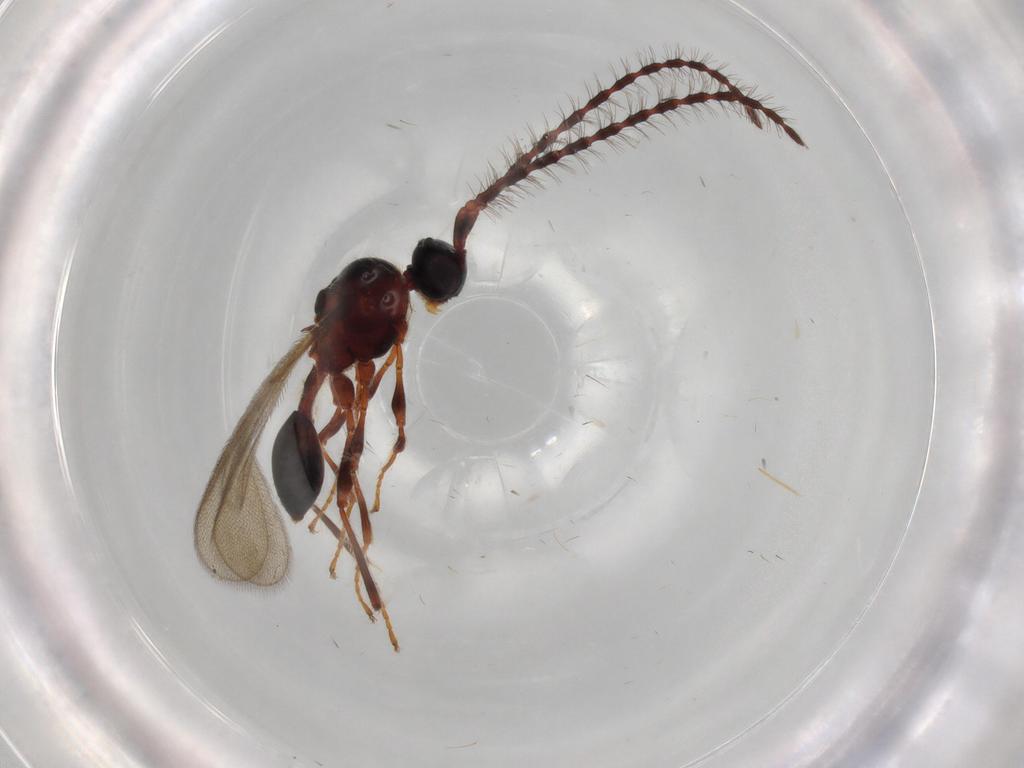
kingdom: Animalia
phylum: Arthropoda
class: Insecta
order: Hymenoptera
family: Diapriidae
